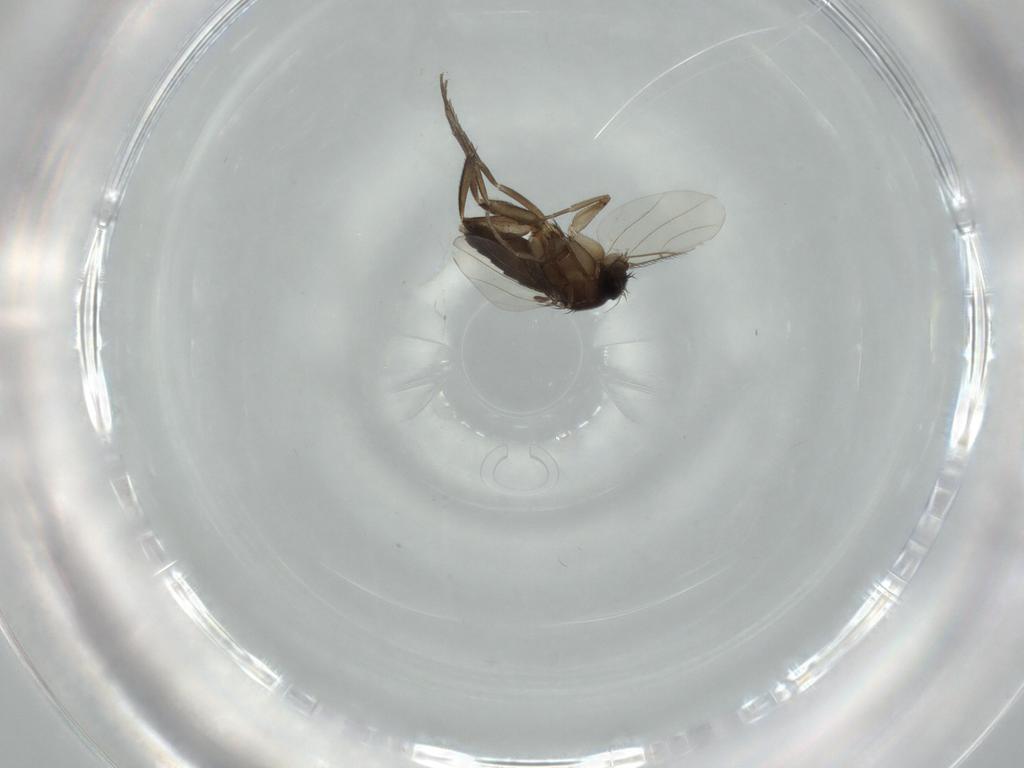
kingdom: Animalia
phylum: Arthropoda
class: Insecta
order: Diptera
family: Phoridae
